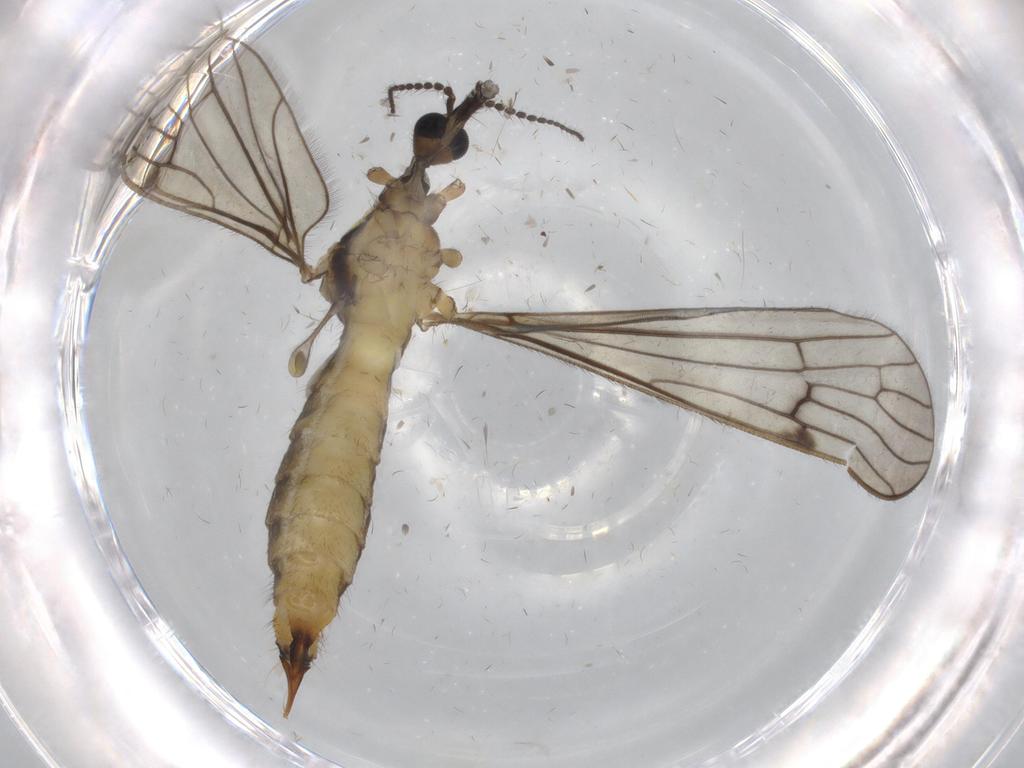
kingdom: Animalia
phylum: Arthropoda
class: Insecta
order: Diptera
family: Limoniidae
